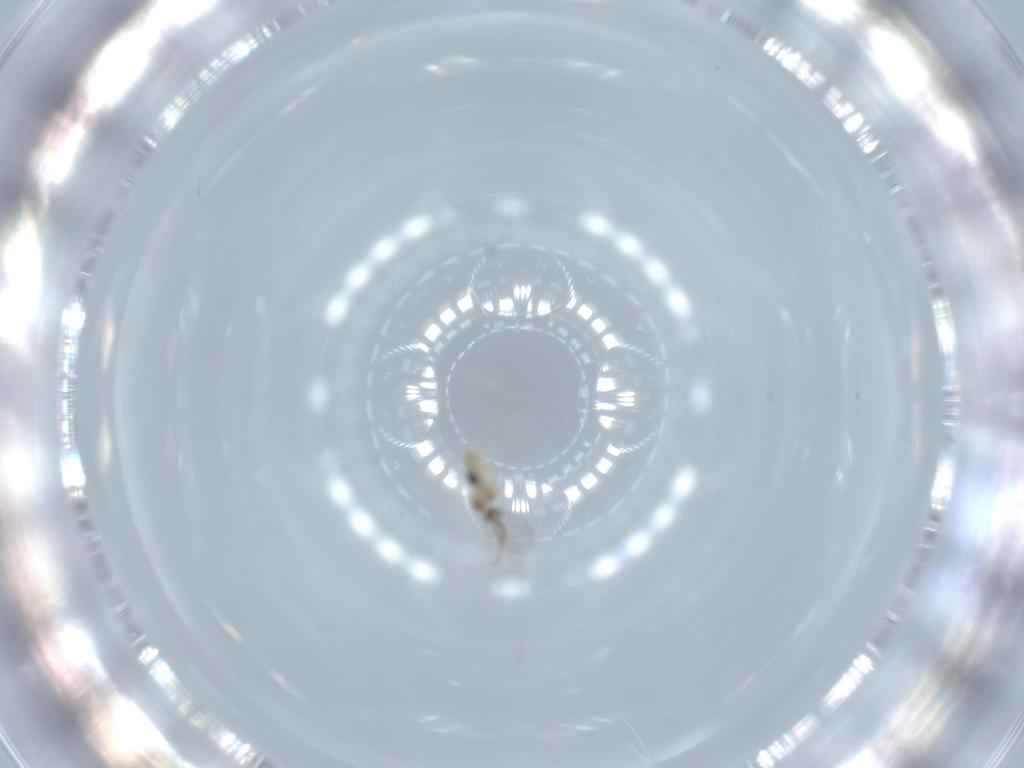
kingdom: Animalia
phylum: Arthropoda
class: Insecta
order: Diptera
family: Cecidomyiidae
